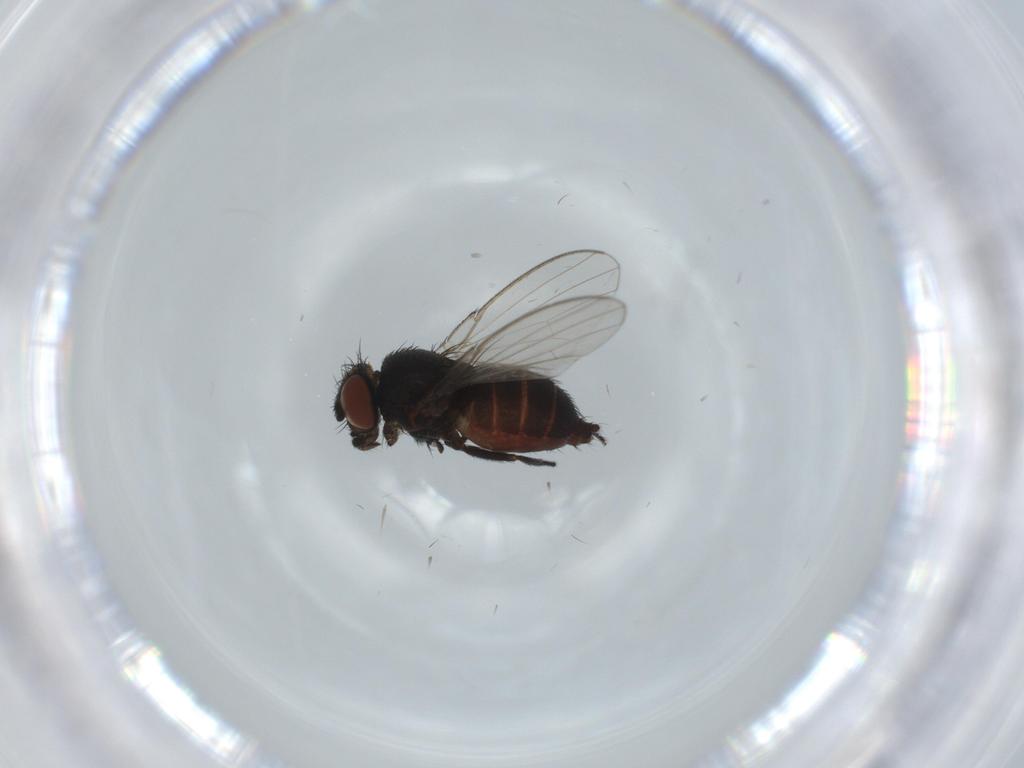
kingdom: Animalia
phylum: Arthropoda
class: Insecta
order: Diptera
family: Milichiidae
